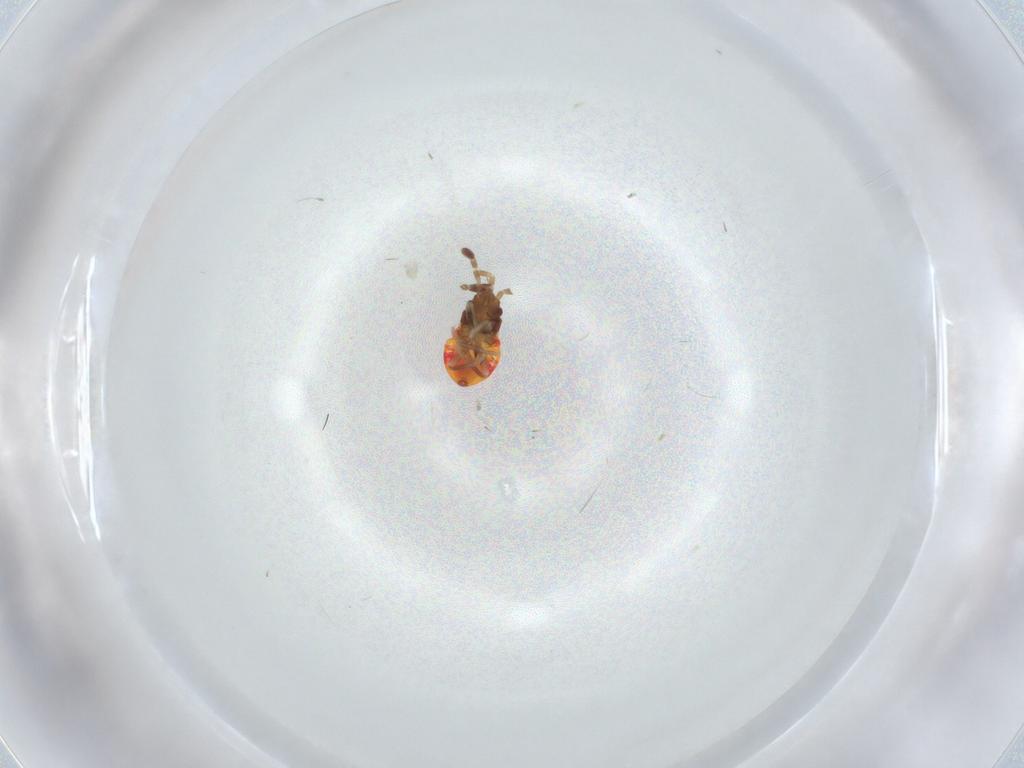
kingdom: Animalia
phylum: Arthropoda
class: Insecta
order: Hemiptera
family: Rhyparochromidae
